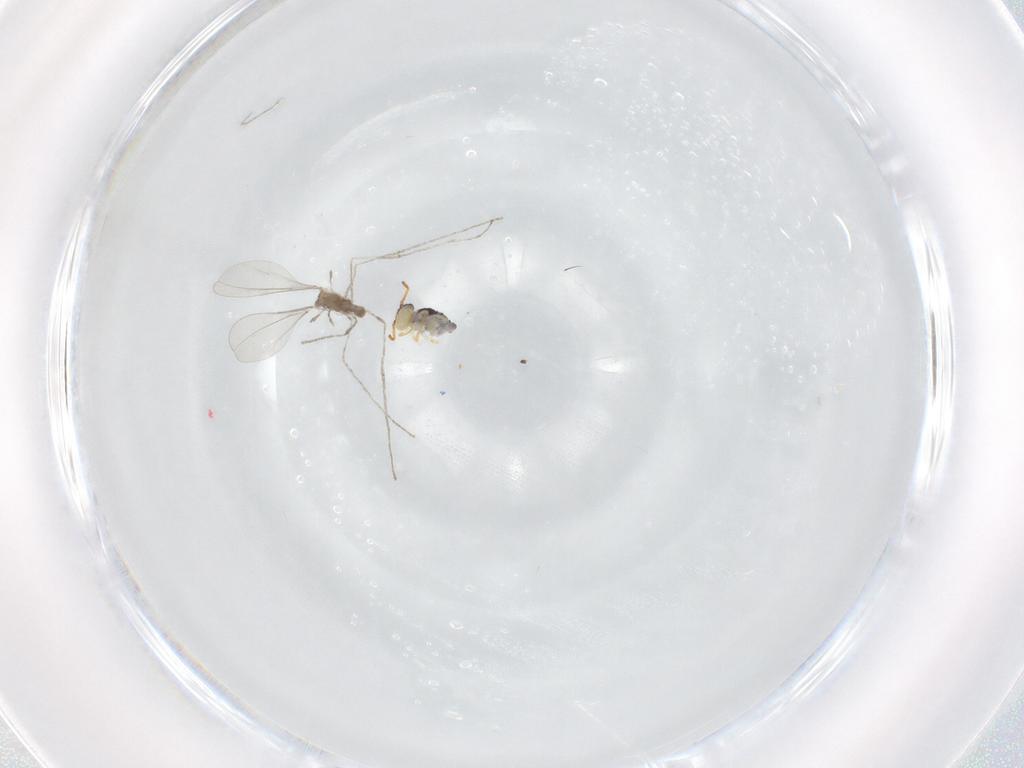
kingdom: Animalia
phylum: Arthropoda
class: Insecta
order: Diptera
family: Cecidomyiidae
